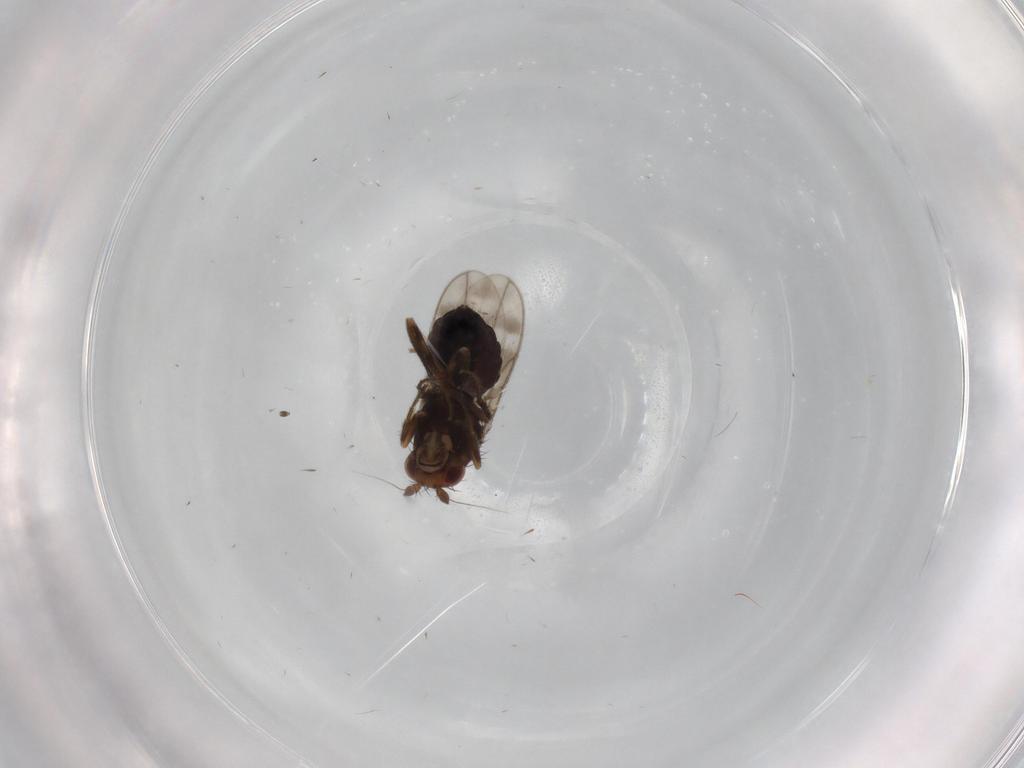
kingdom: Animalia
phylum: Arthropoda
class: Insecta
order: Diptera
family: Sphaeroceridae
